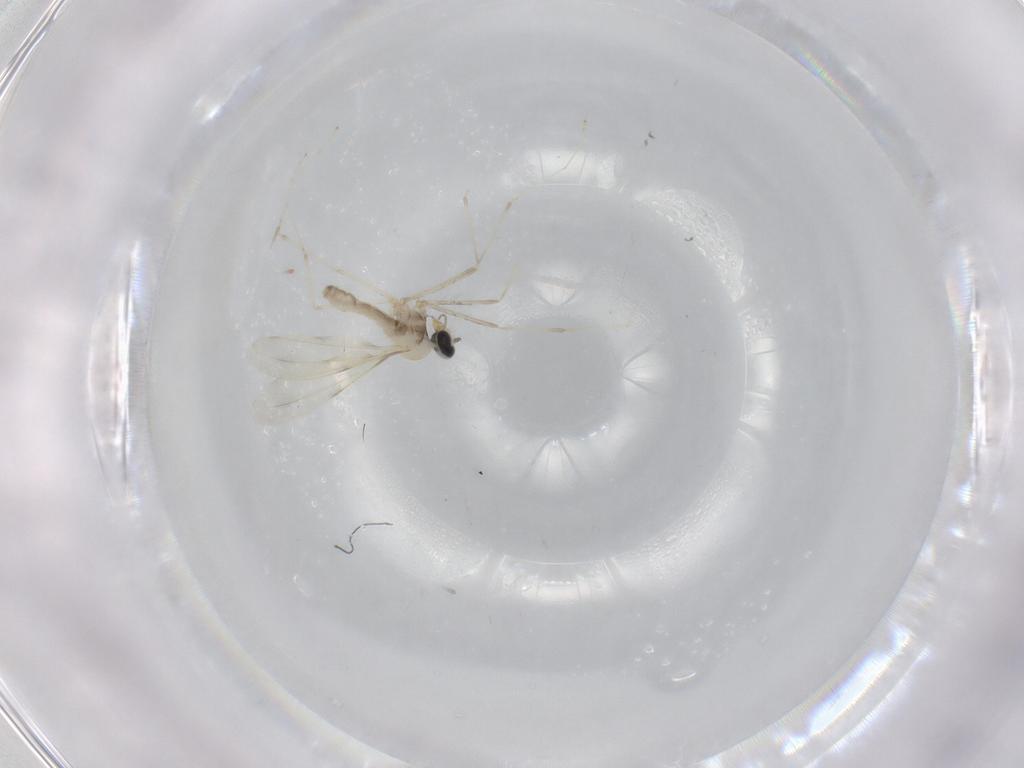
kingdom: Animalia
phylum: Arthropoda
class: Insecta
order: Diptera
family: Cecidomyiidae
